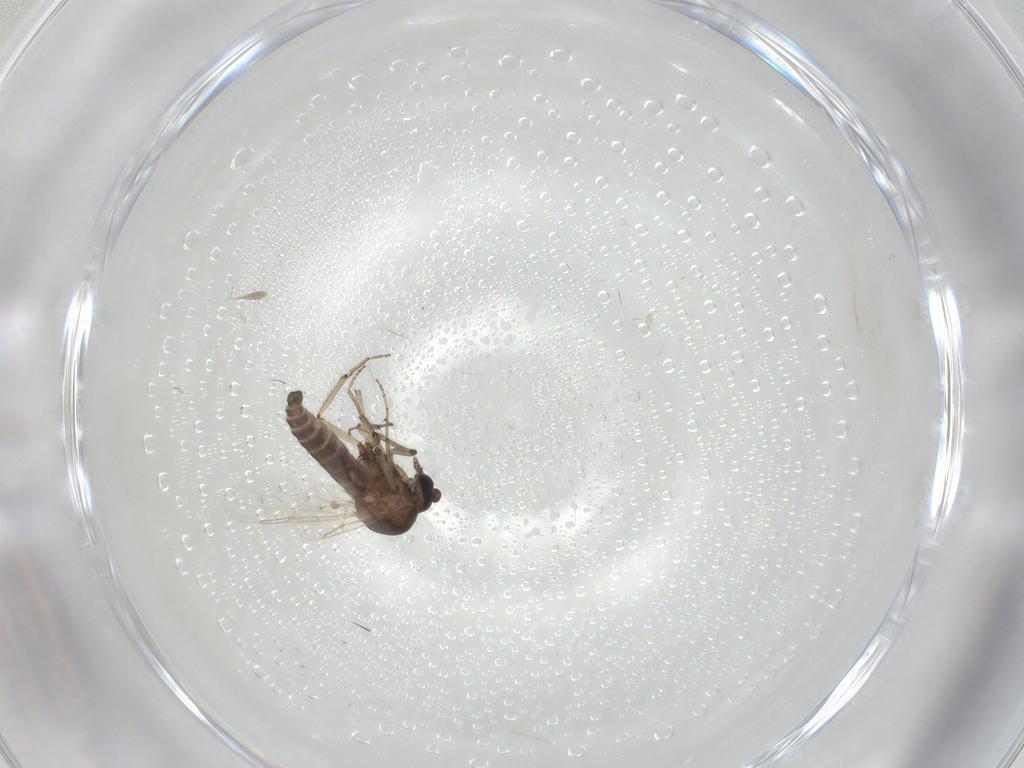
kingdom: Animalia
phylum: Arthropoda
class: Insecta
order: Diptera
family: Ceratopogonidae
